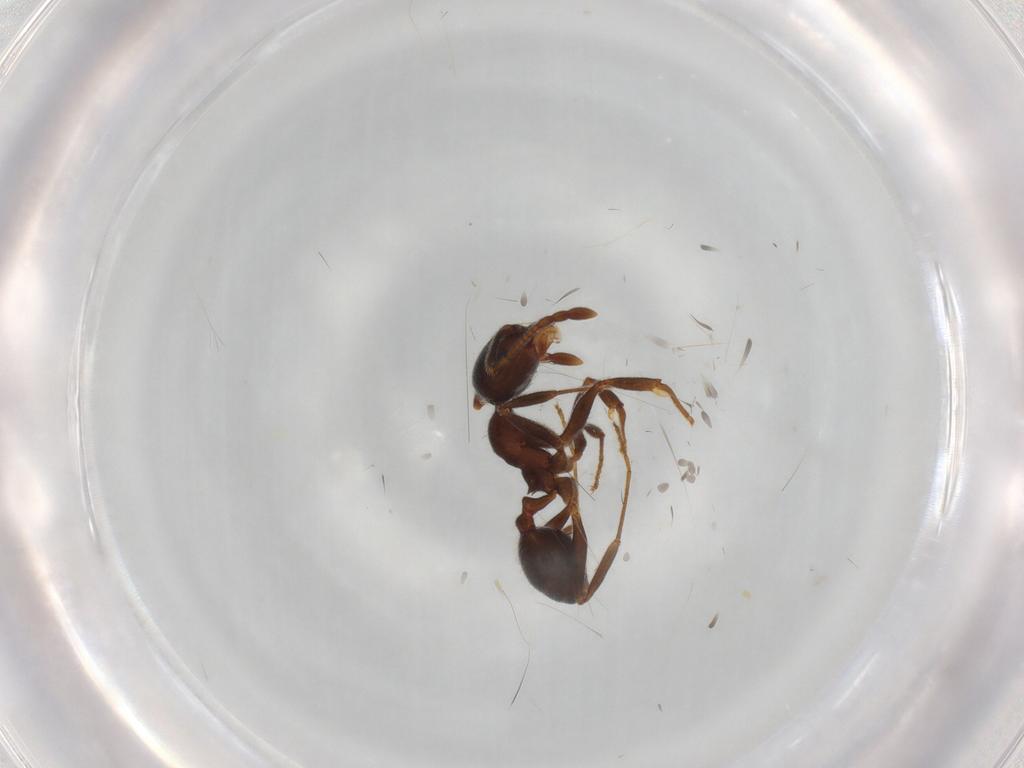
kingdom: Animalia
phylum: Arthropoda
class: Insecta
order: Hymenoptera
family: Formicidae
